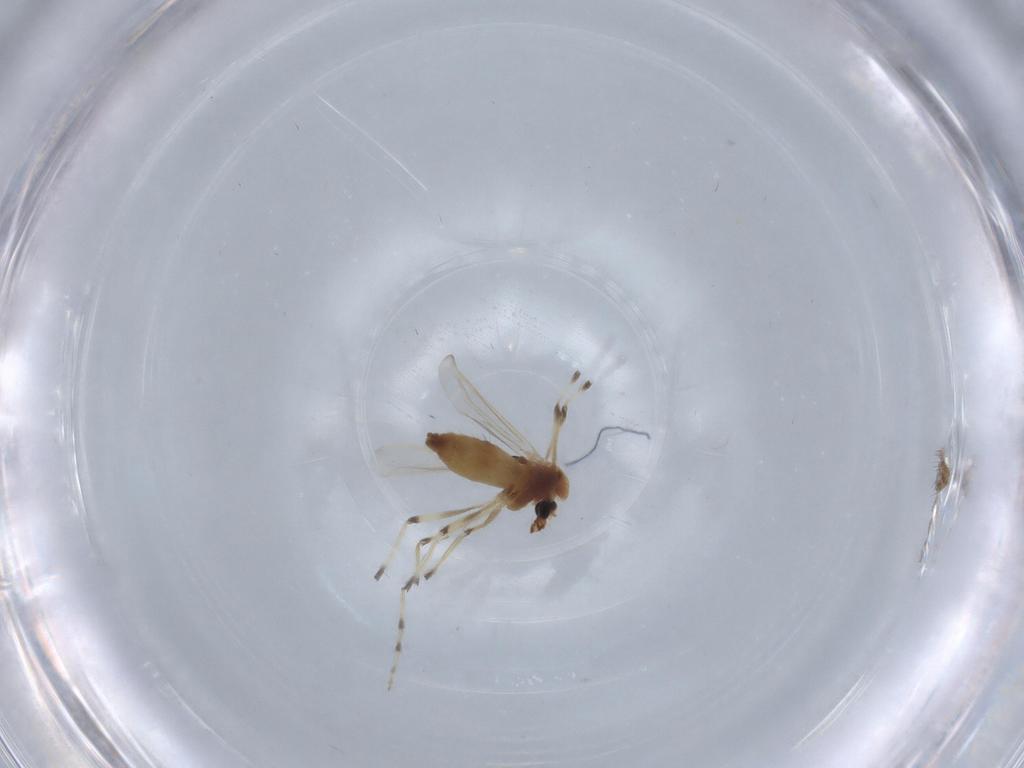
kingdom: Animalia
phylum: Arthropoda
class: Insecta
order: Diptera
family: Chironomidae
